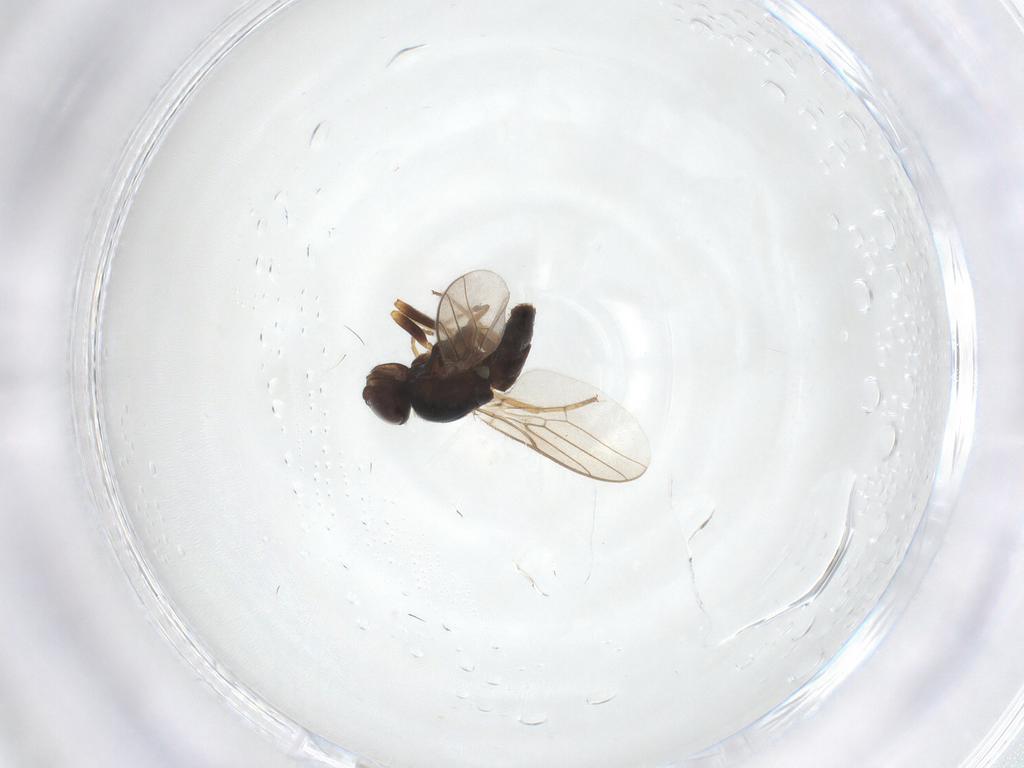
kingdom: Animalia
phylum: Arthropoda
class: Insecta
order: Diptera
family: Chloropidae
